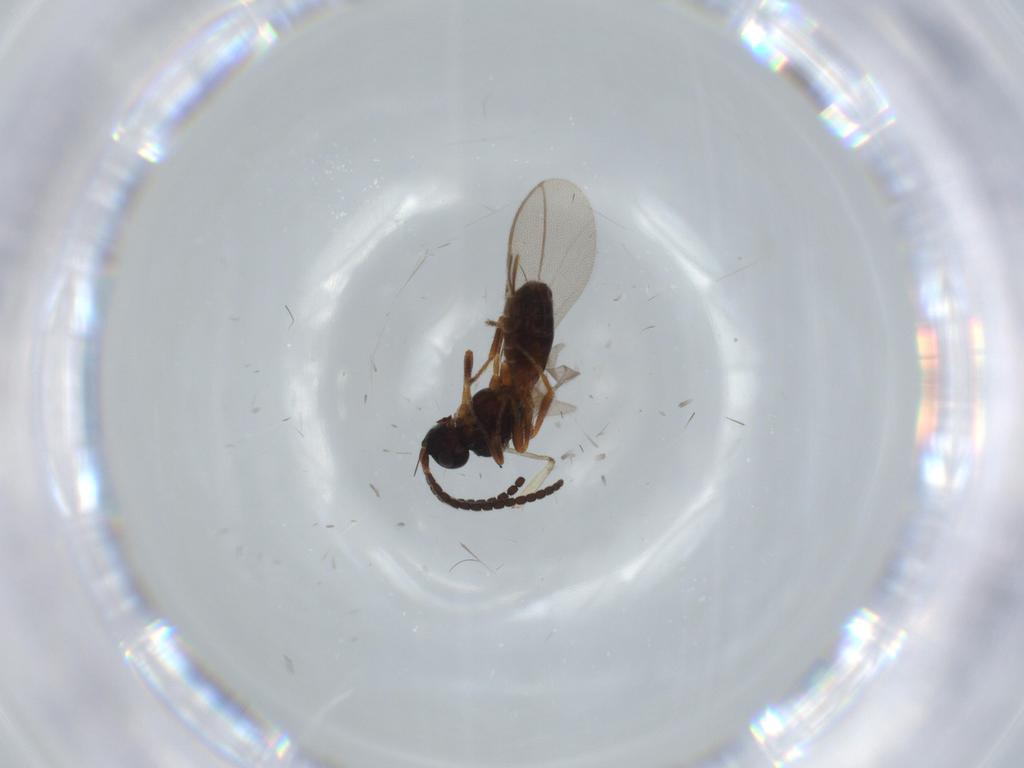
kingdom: Animalia
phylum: Arthropoda
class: Insecta
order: Hymenoptera
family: Braconidae
